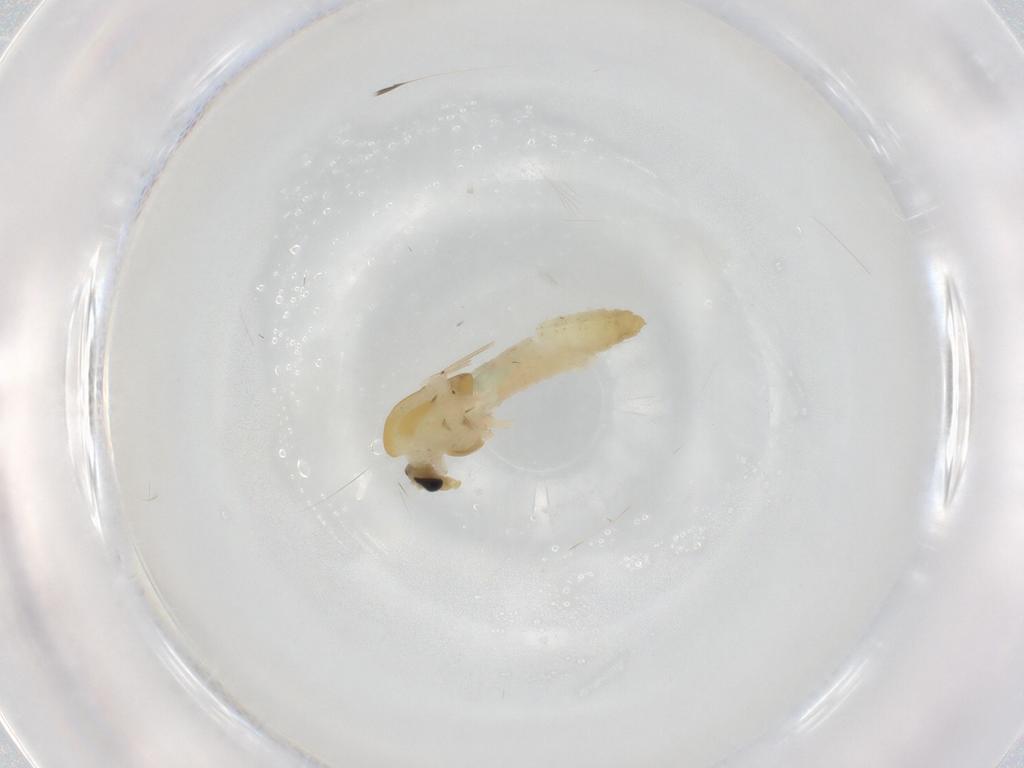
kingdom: Animalia
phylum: Arthropoda
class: Insecta
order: Diptera
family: Chironomidae
